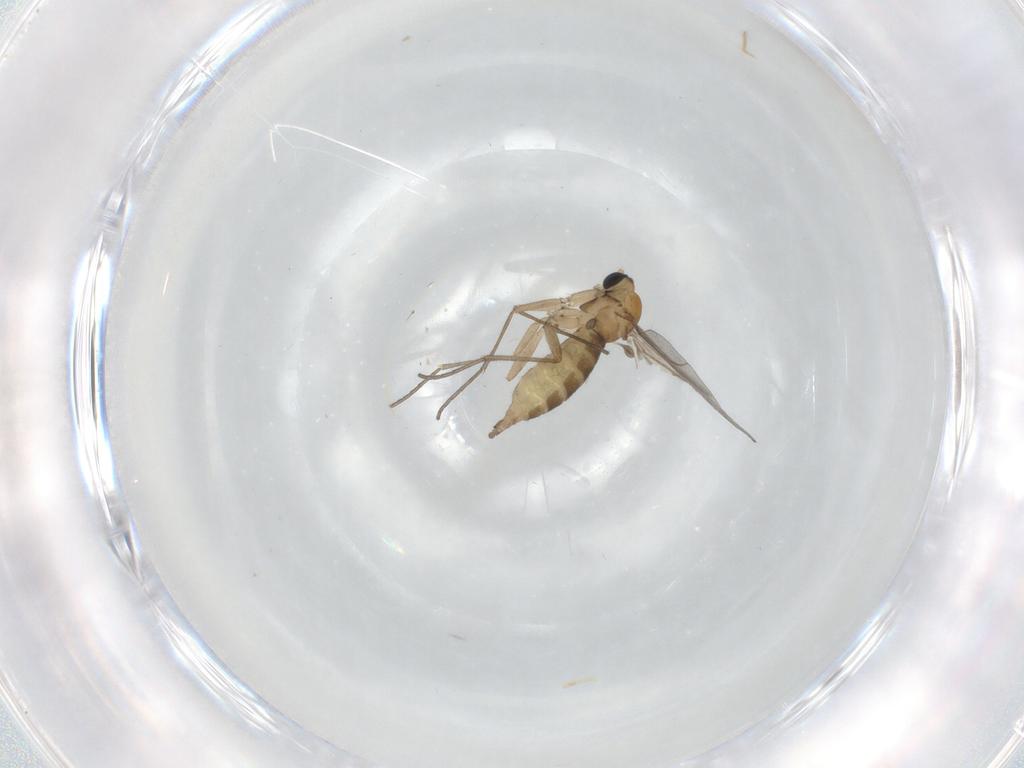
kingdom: Animalia
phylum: Arthropoda
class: Insecta
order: Diptera
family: Sciaridae
